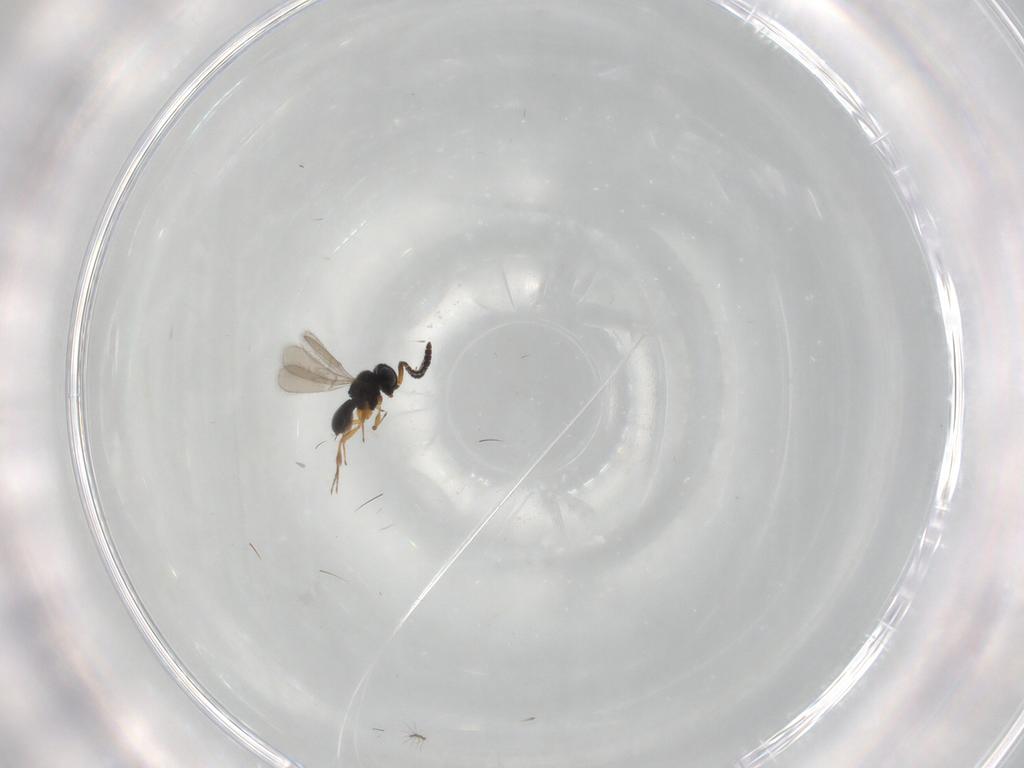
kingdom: Animalia
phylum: Arthropoda
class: Insecta
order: Hymenoptera
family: Scelionidae
